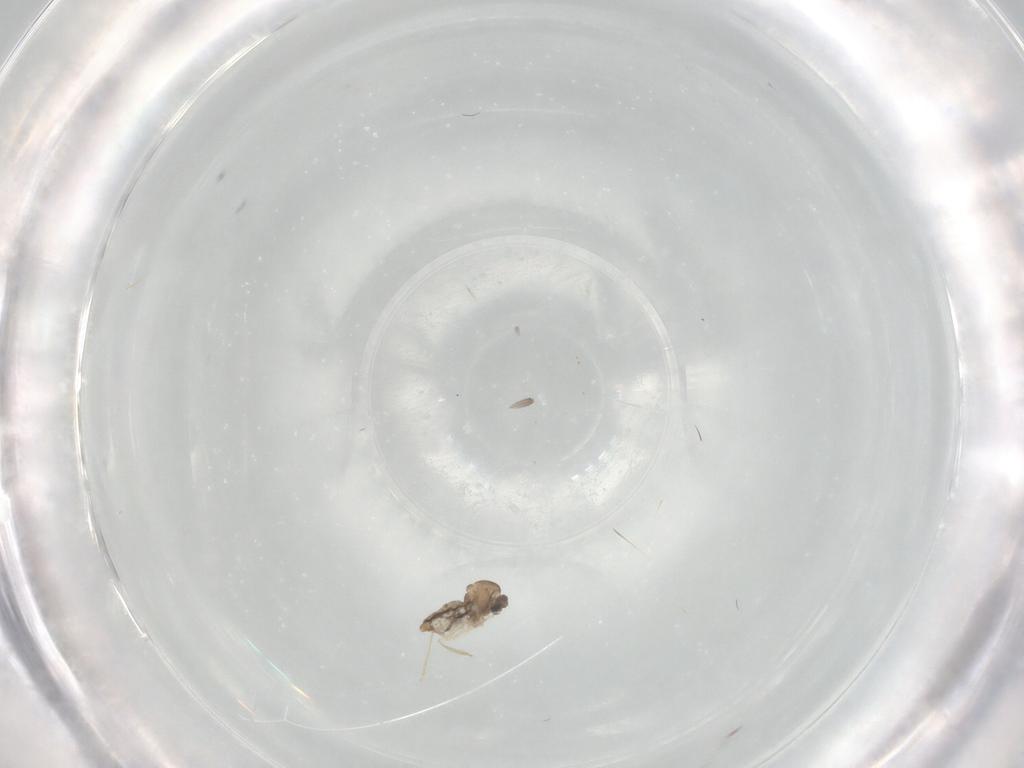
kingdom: Animalia
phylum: Arthropoda
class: Insecta
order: Diptera
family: Cecidomyiidae
